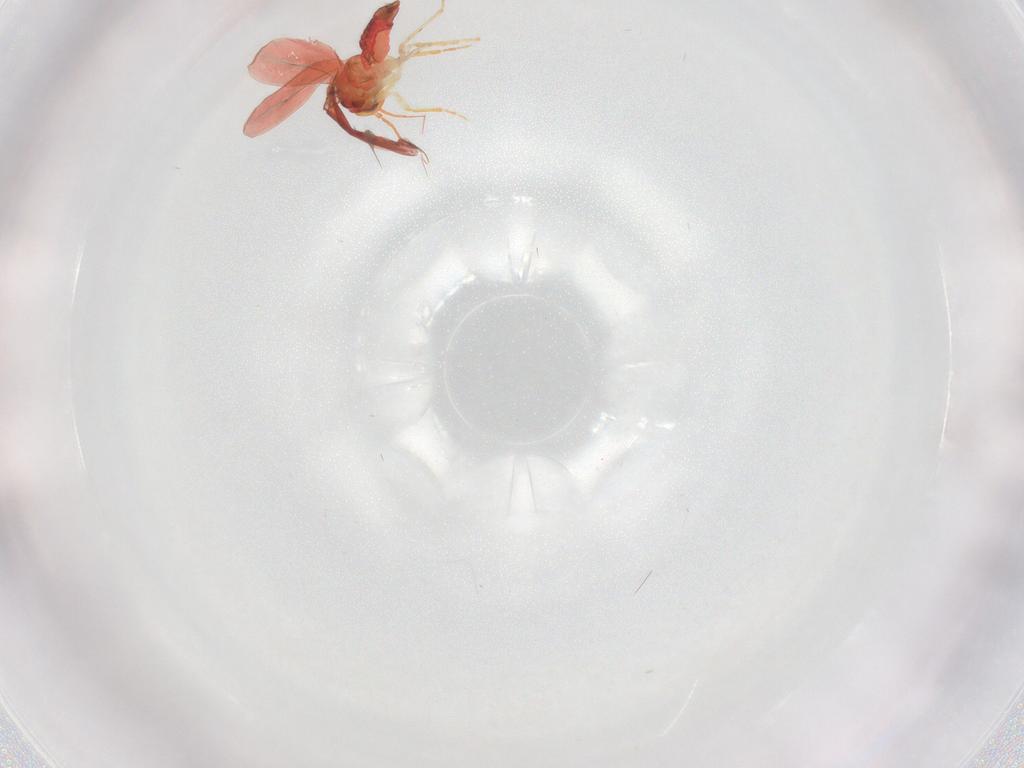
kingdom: Animalia
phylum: Arthropoda
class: Insecta
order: Hemiptera
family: Aleyrodidae
